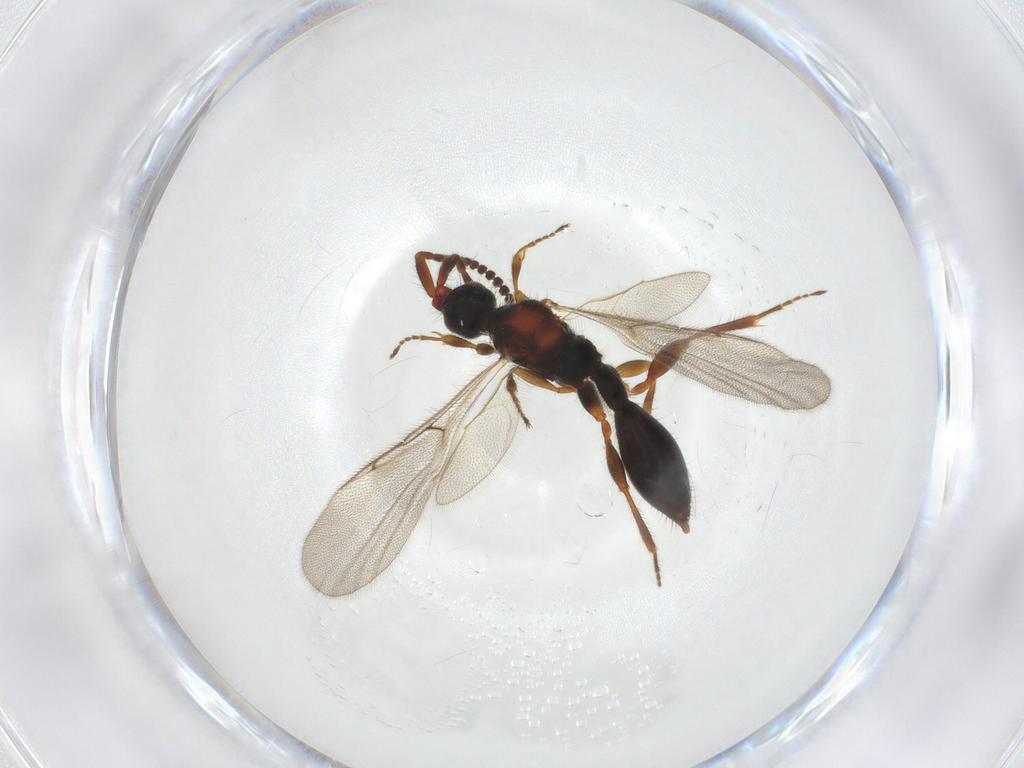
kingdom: Animalia
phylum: Arthropoda
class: Insecta
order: Hymenoptera
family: Diapriidae
